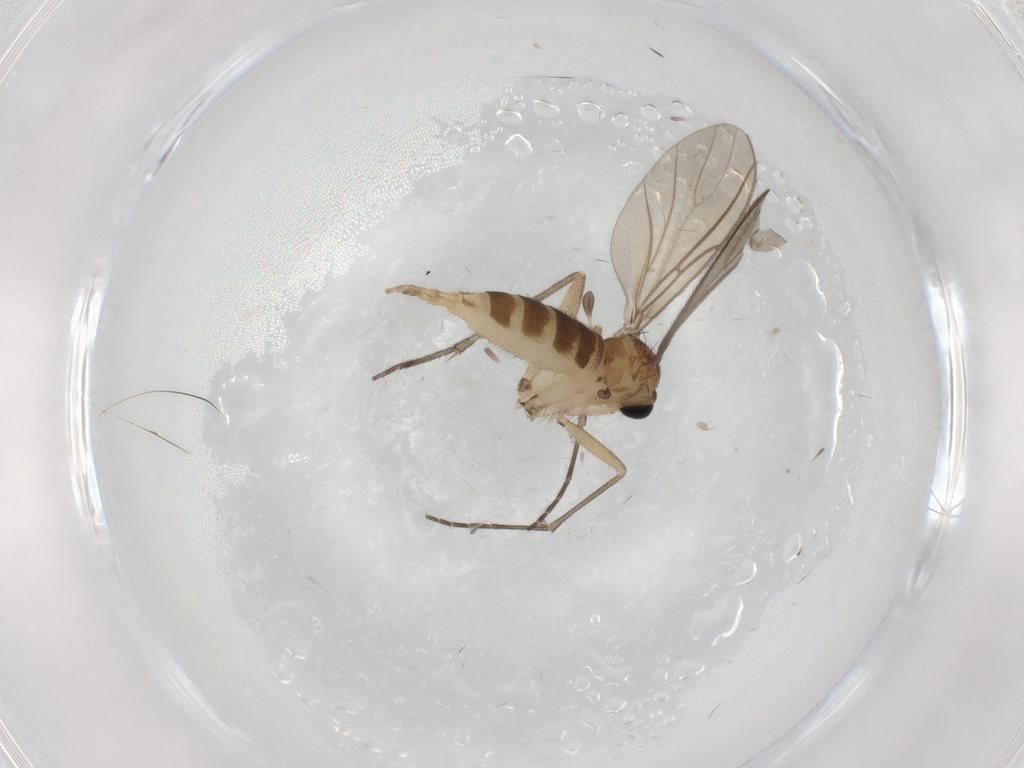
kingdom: Animalia
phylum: Arthropoda
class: Insecta
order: Diptera
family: Sciaridae
